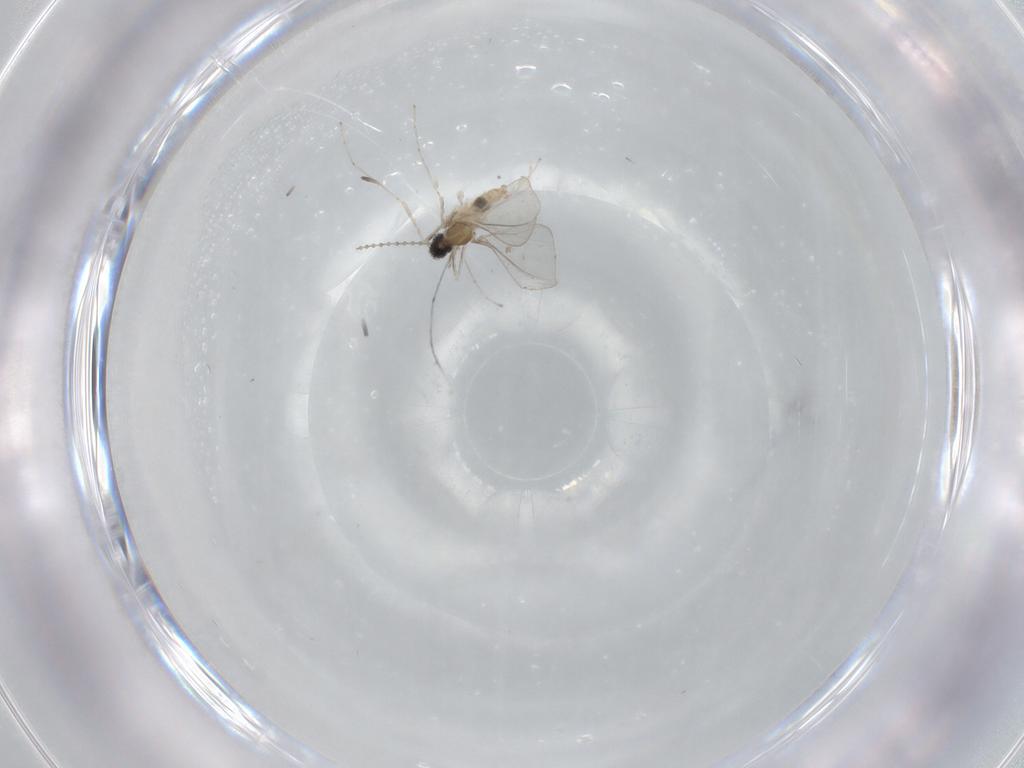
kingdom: Animalia
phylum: Arthropoda
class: Insecta
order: Diptera
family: Cecidomyiidae
